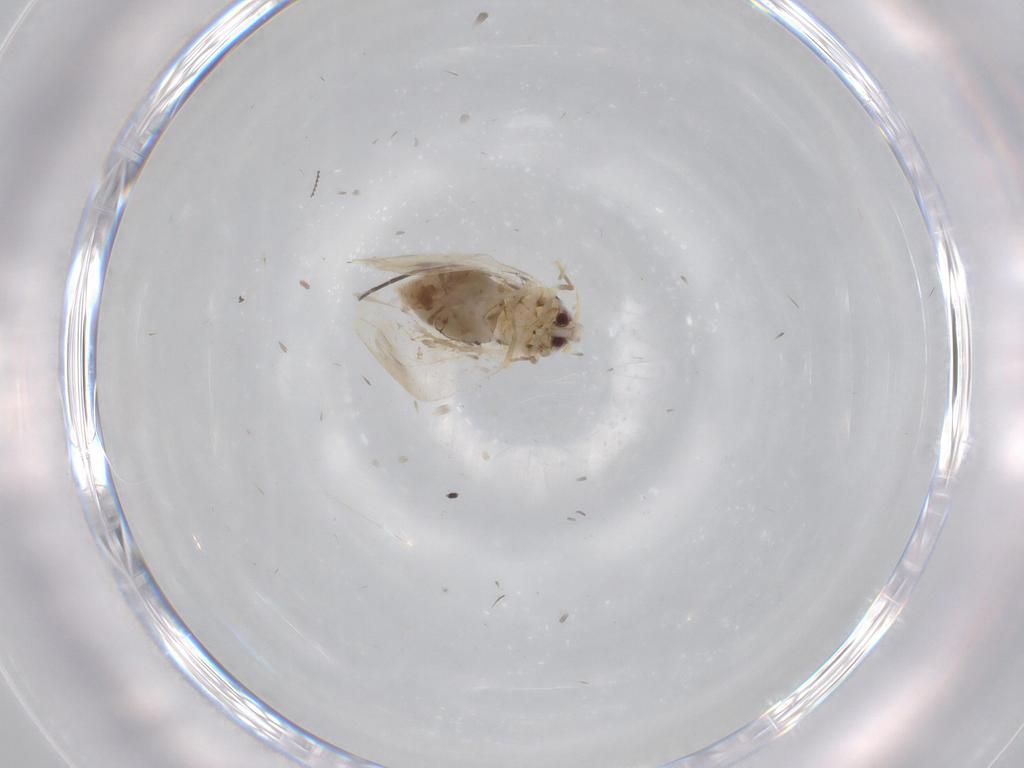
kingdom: Animalia
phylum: Arthropoda
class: Insecta
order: Hemiptera
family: Aleyrodidae
